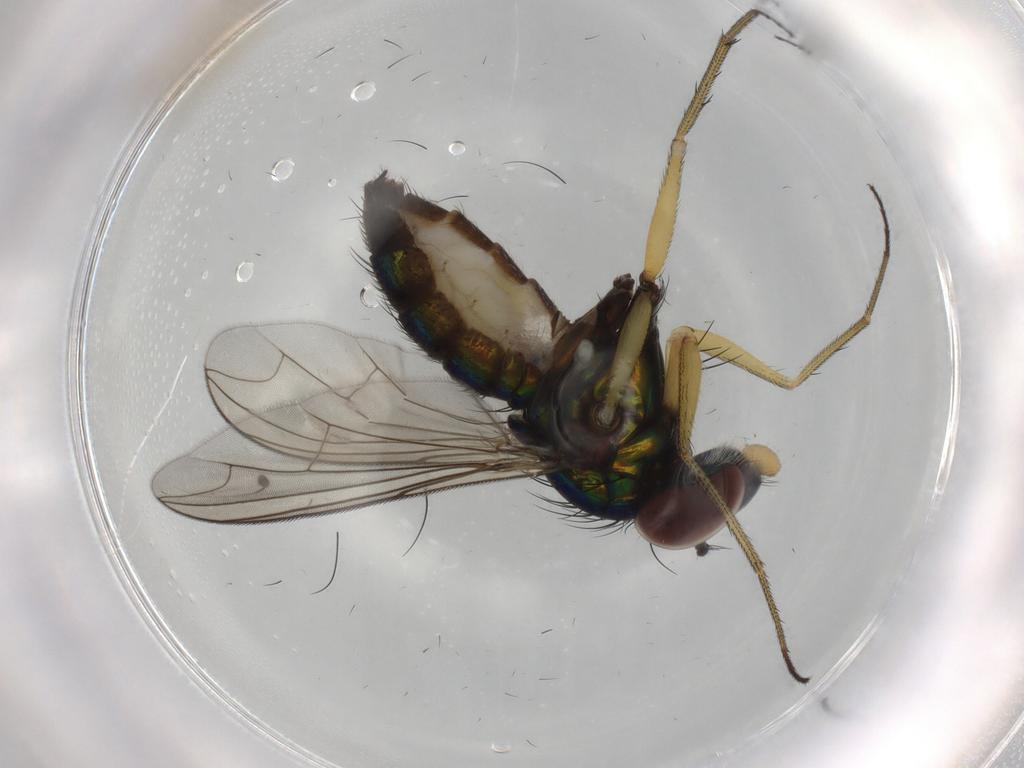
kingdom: Animalia
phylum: Arthropoda
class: Insecta
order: Diptera
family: Dolichopodidae
